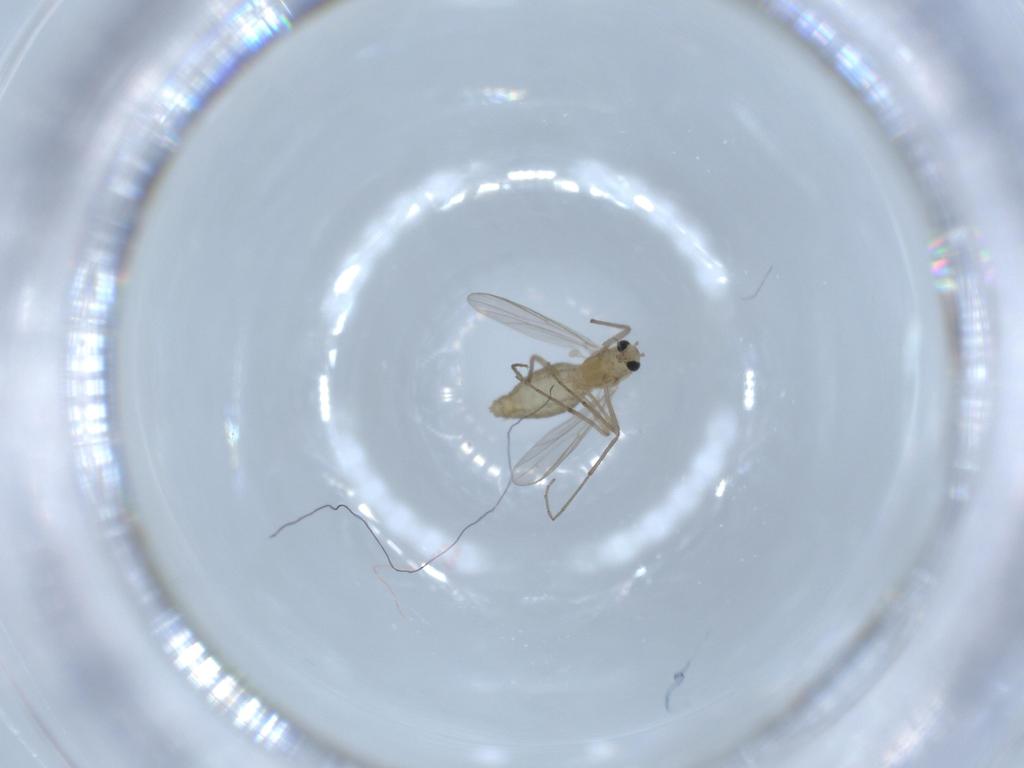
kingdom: Animalia
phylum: Arthropoda
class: Insecta
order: Diptera
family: Chironomidae
